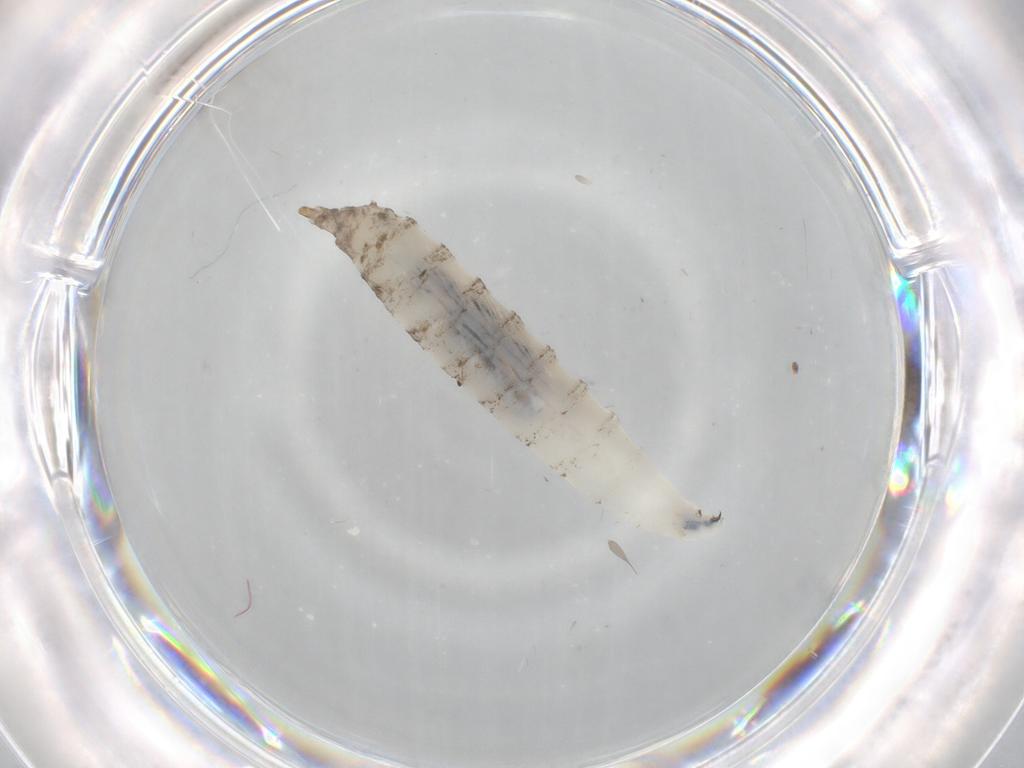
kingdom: Animalia
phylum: Arthropoda
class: Insecta
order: Hemiptera
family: Aleyrodidae
